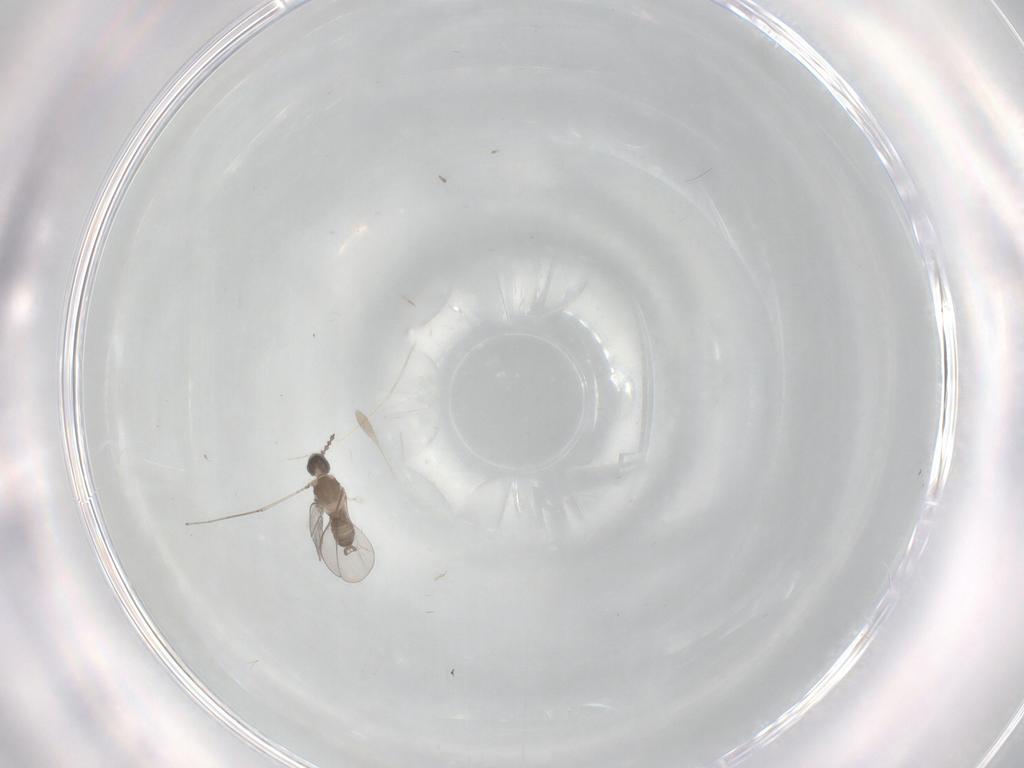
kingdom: Animalia
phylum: Arthropoda
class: Insecta
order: Diptera
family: Cecidomyiidae
